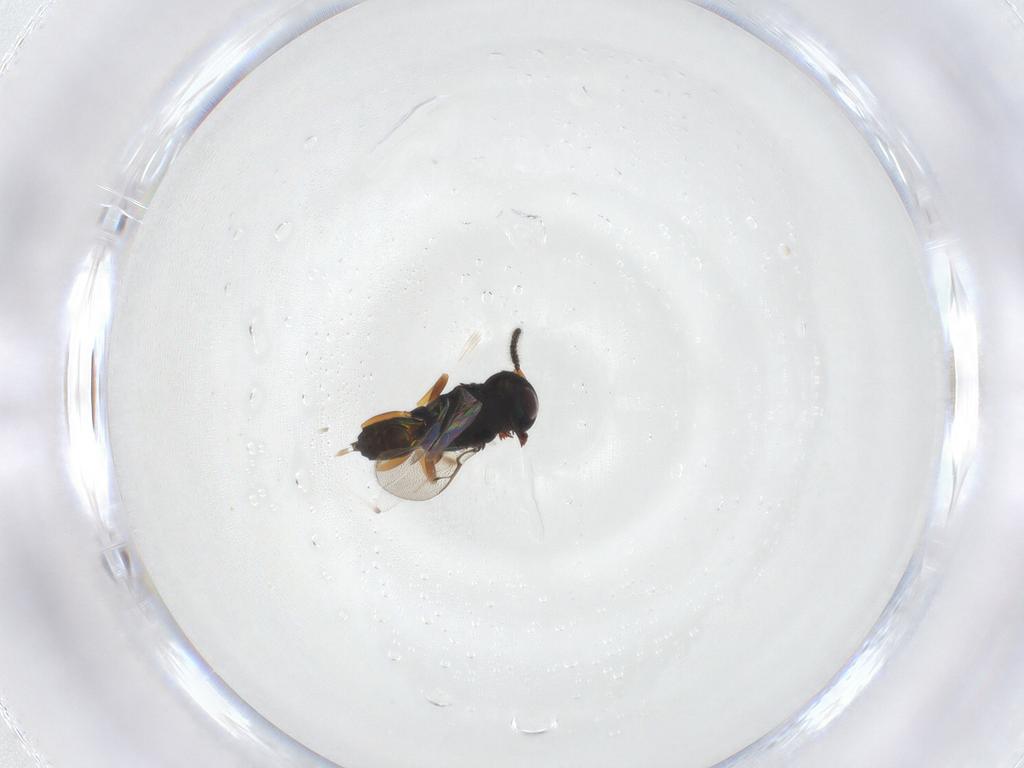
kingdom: Animalia
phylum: Arthropoda
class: Insecta
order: Hymenoptera
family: Pteromalidae
